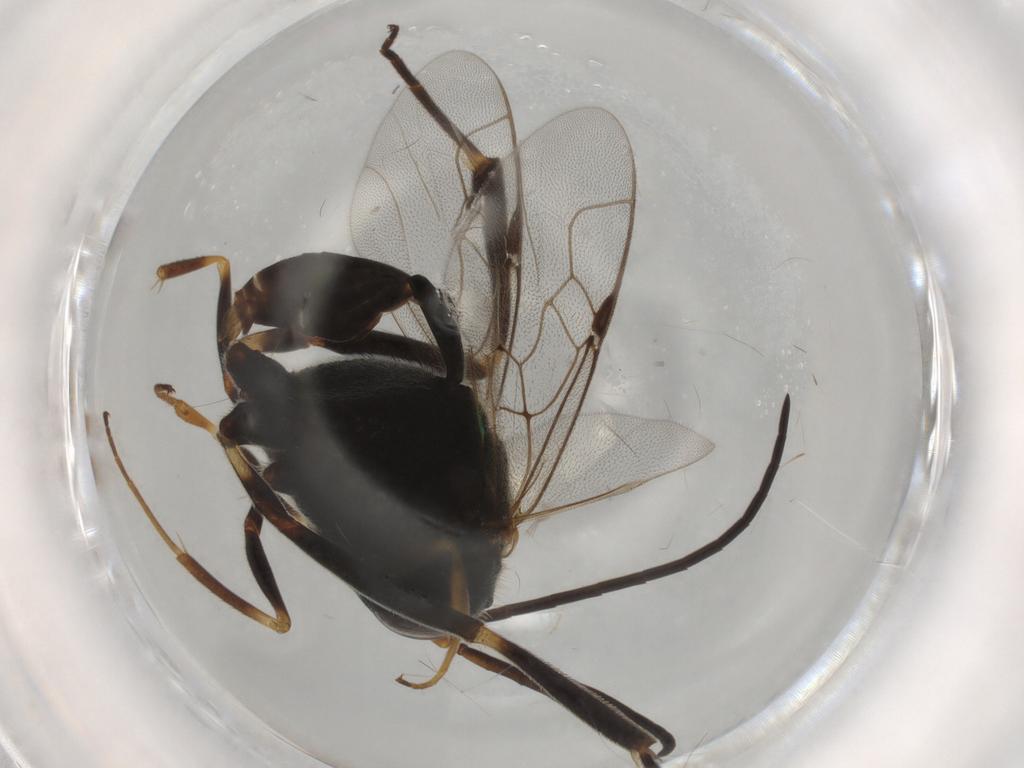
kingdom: Animalia
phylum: Arthropoda
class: Insecta
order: Hymenoptera
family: Evaniidae
